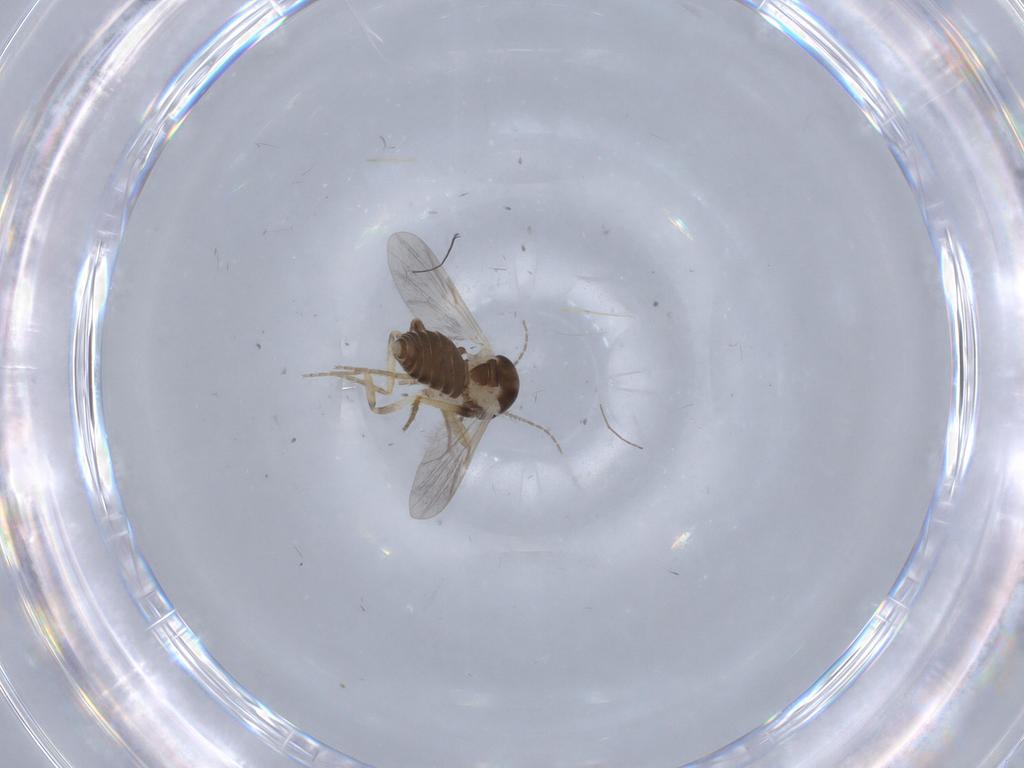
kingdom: Animalia
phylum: Arthropoda
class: Insecta
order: Diptera
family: Ceratopogonidae
